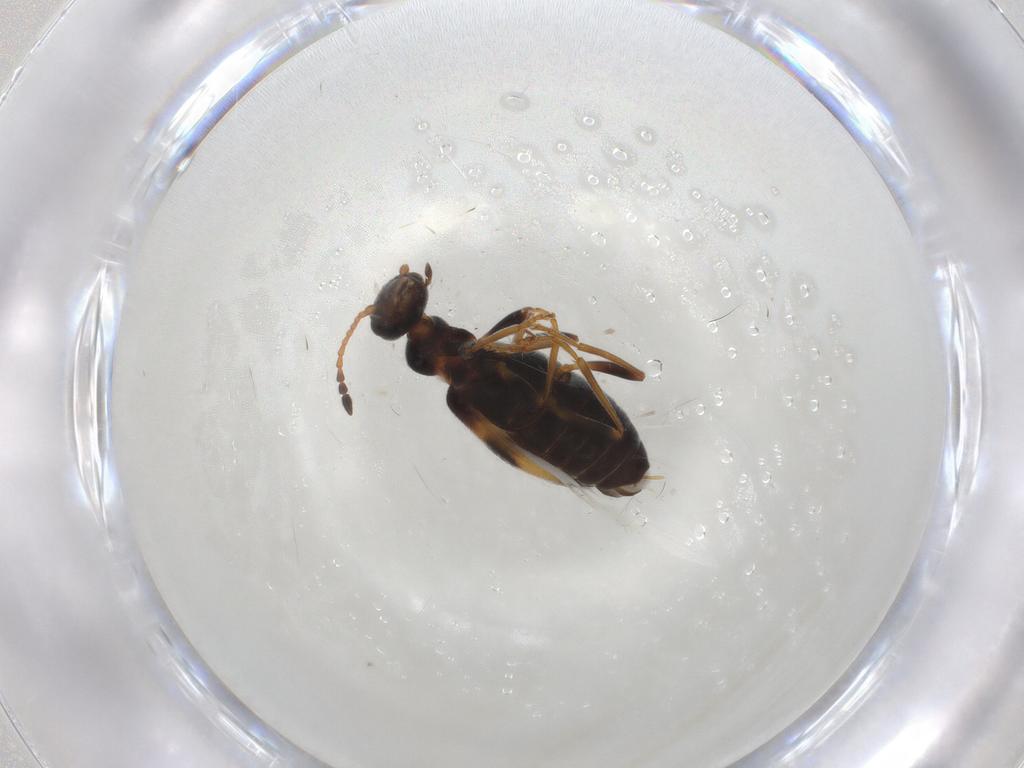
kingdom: Animalia
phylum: Arthropoda
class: Insecta
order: Coleoptera
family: Anthicidae
